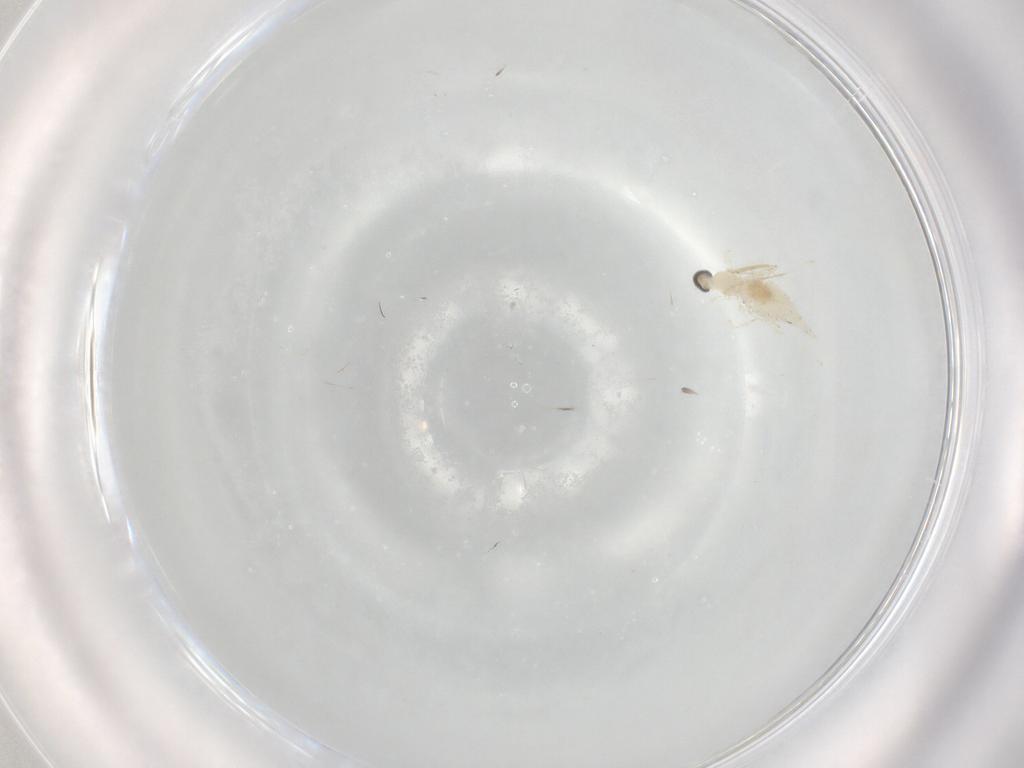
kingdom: Animalia
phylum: Arthropoda
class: Insecta
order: Diptera
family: Cecidomyiidae
